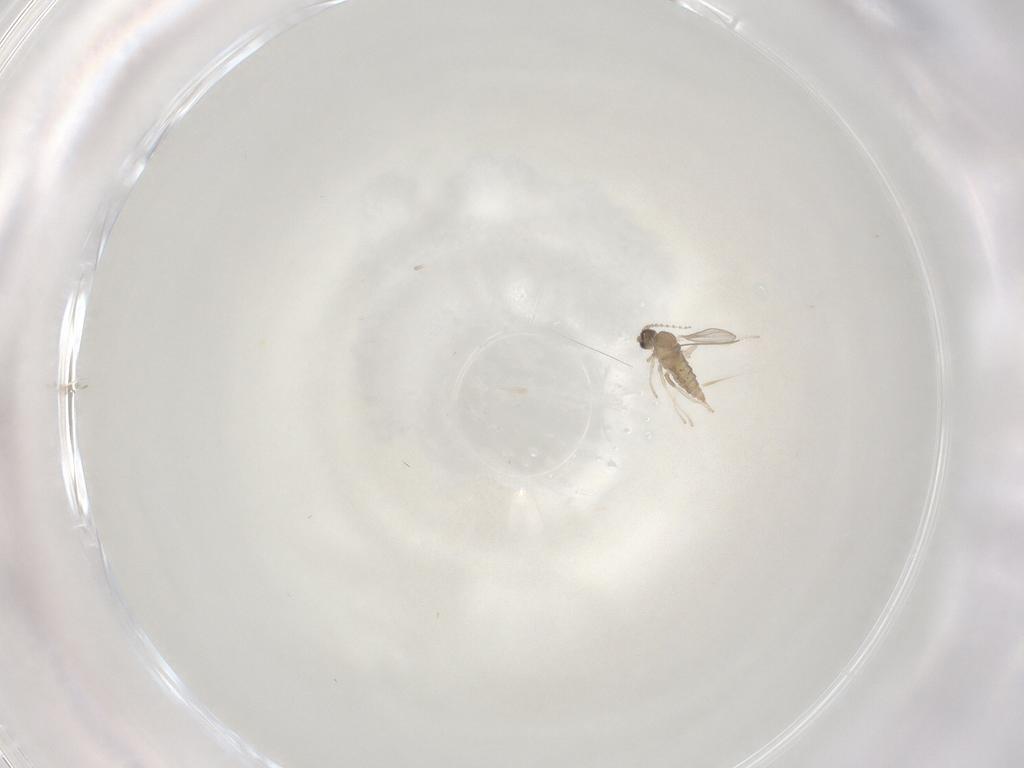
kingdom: Animalia
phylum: Arthropoda
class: Insecta
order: Diptera
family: Cecidomyiidae
